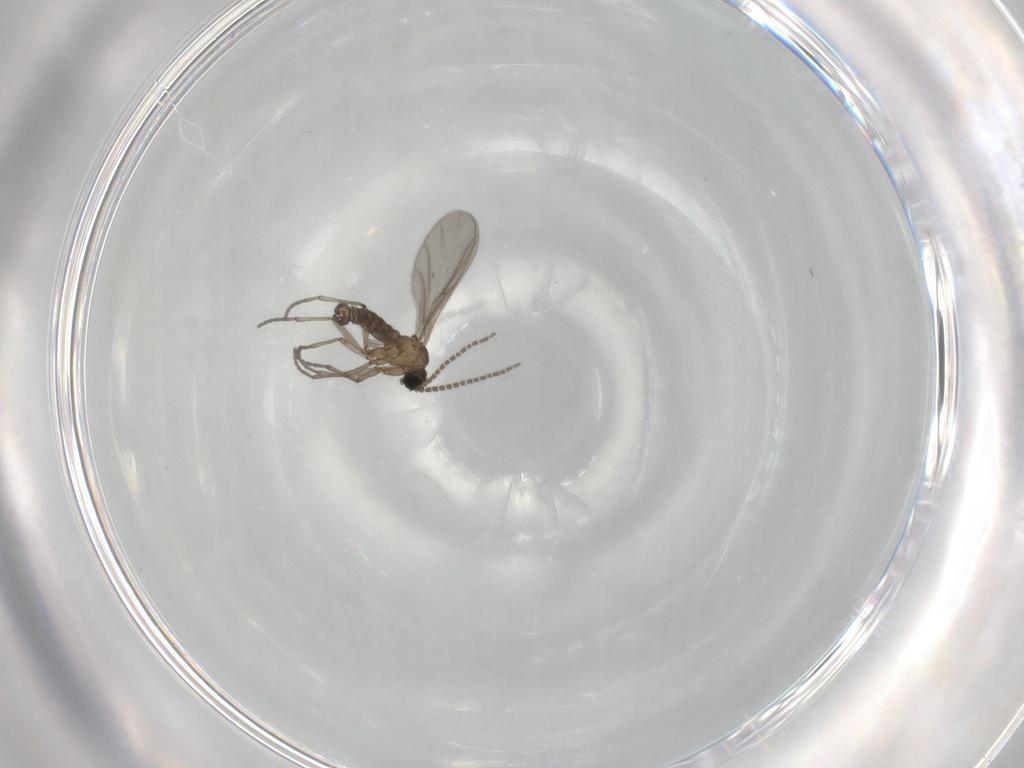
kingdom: Animalia
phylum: Arthropoda
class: Insecta
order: Diptera
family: Sciaridae
